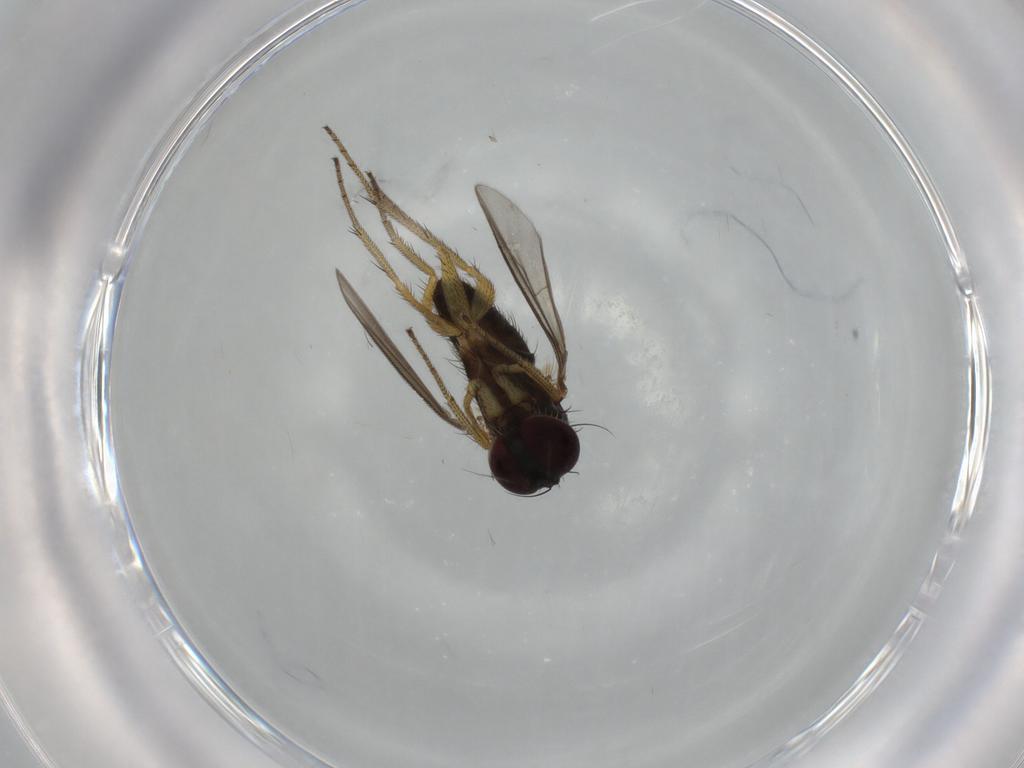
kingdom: Animalia
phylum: Arthropoda
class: Insecta
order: Diptera
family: Dolichopodidae
